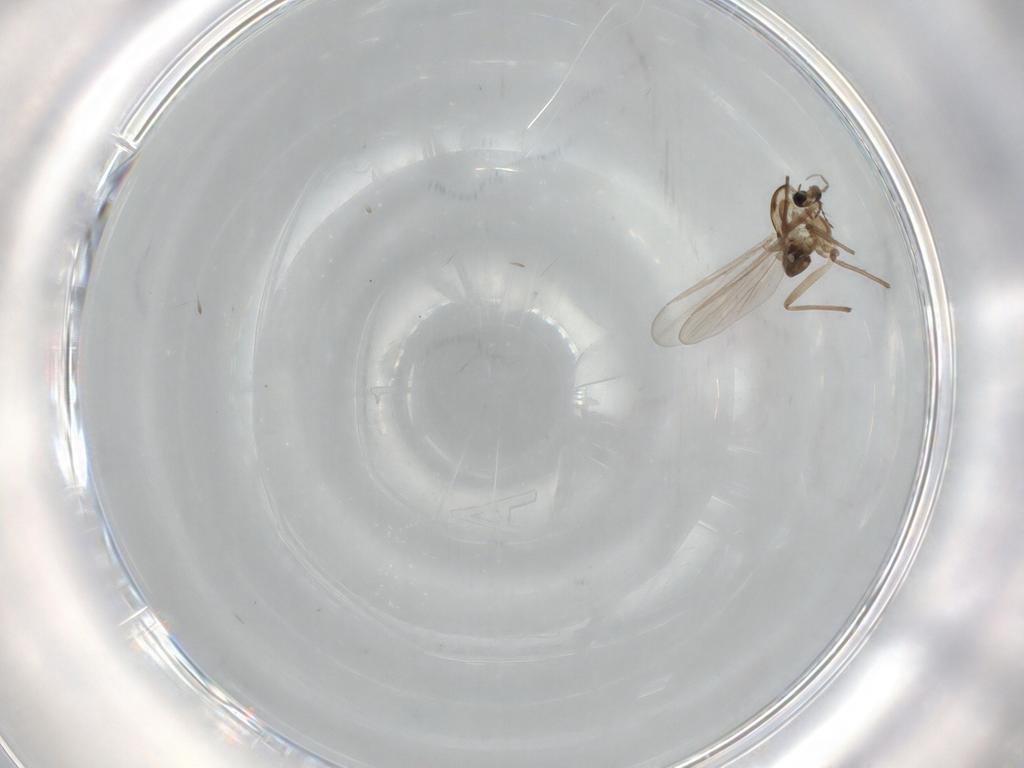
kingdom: Animalia
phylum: Arthropoda
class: Insecta
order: Diptera
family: Chironomidae
